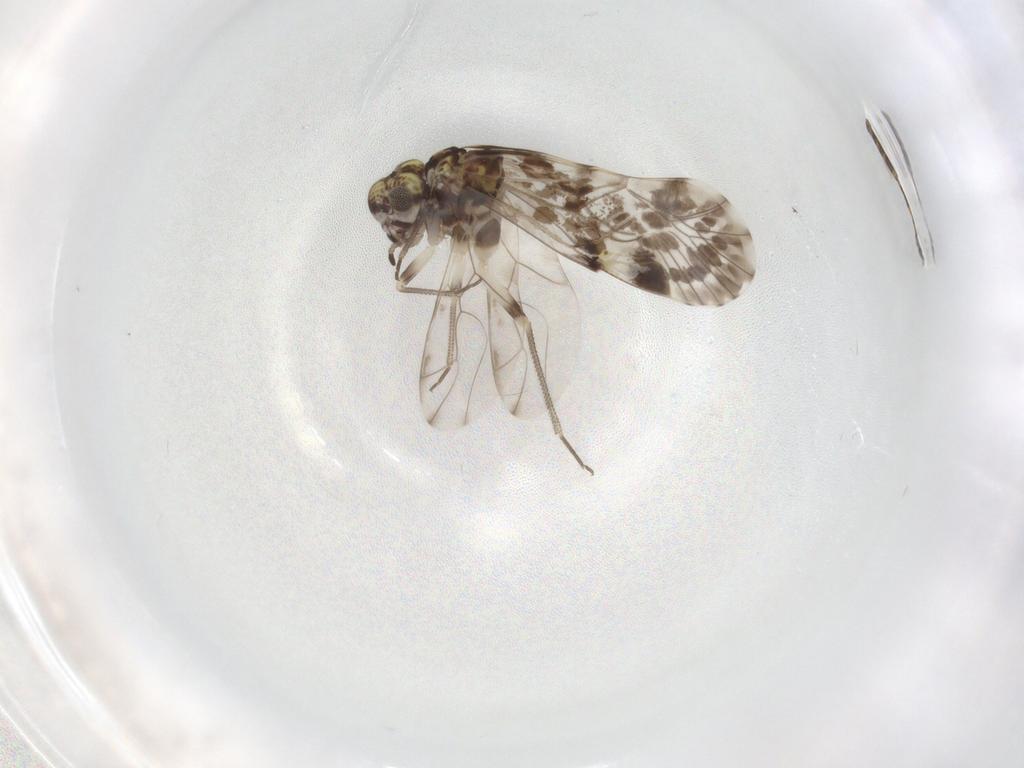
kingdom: Animalia
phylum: Arthropoda
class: Insecta
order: Psocodea
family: Philotarsidae
